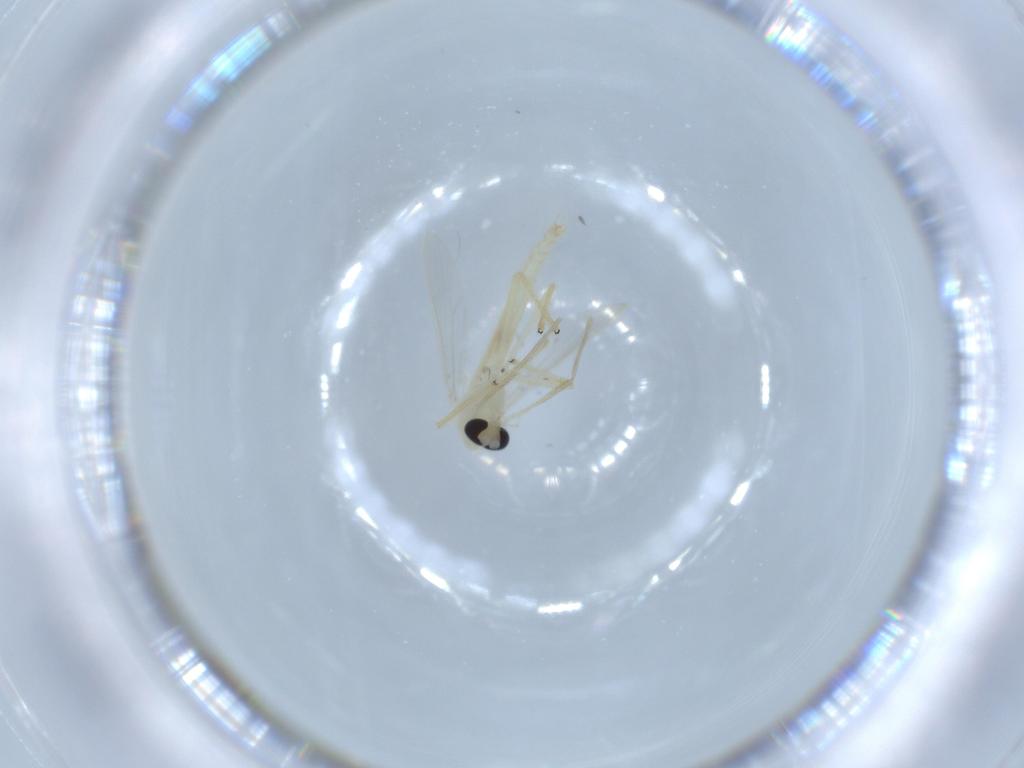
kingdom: Animalia
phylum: Arthropoda
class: Insecta
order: Diptera
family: Chironomidae
